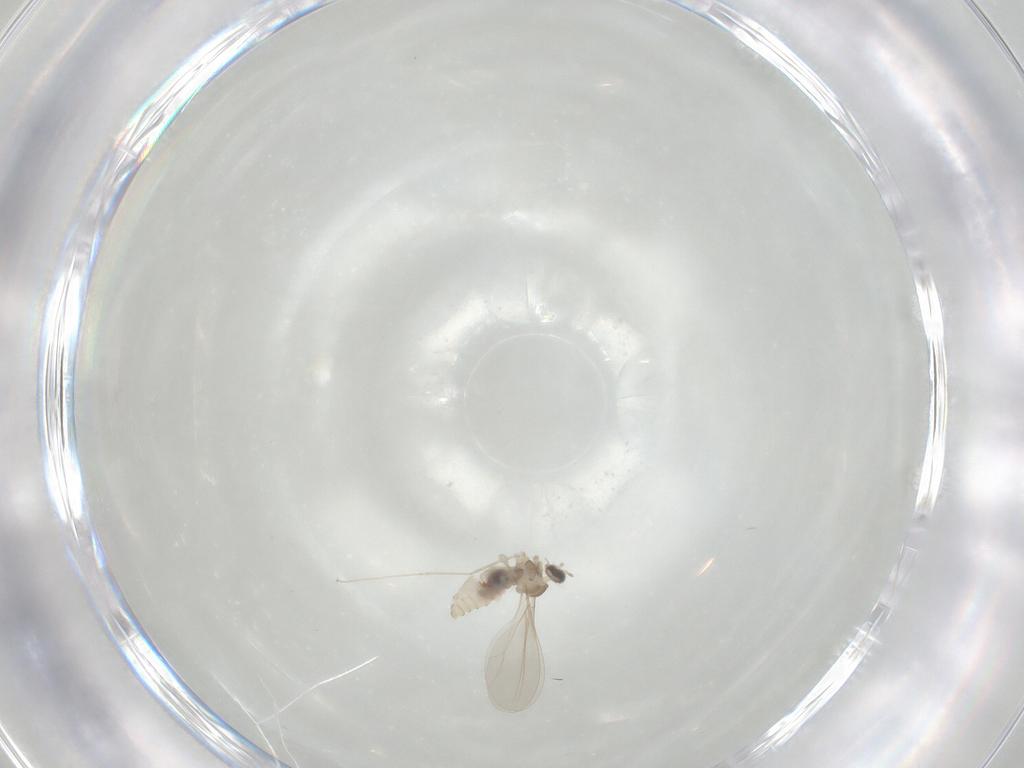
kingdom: Animalia
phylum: Arthropoda
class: Insecta
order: Diptera
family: Cecidomyiidae
